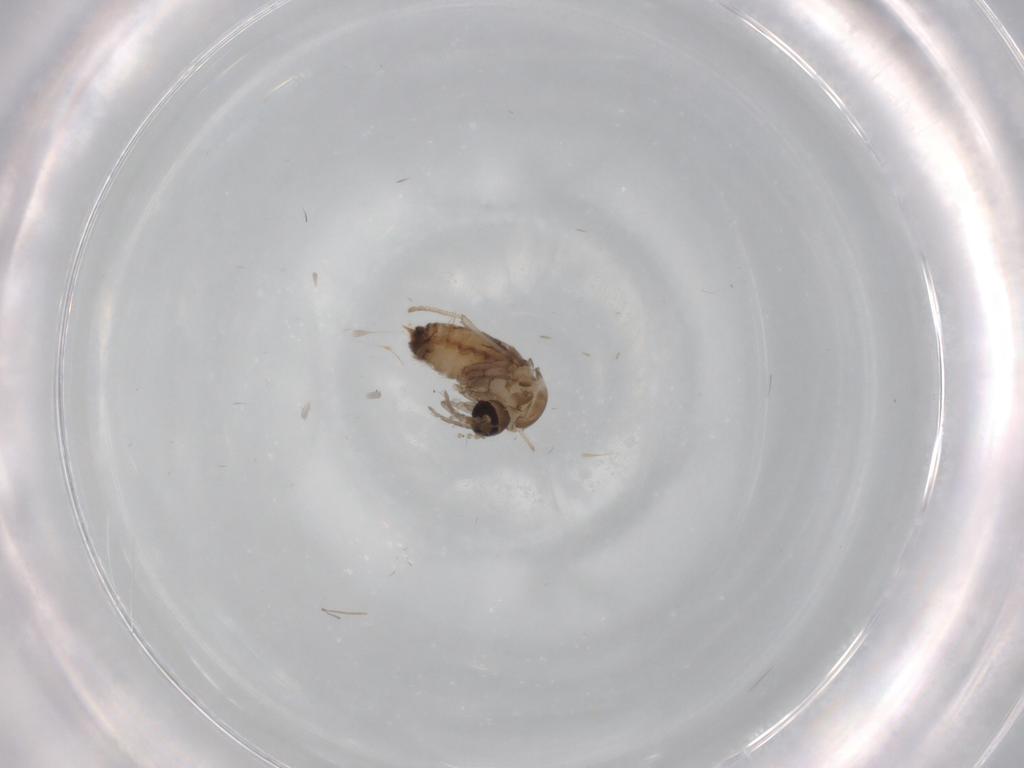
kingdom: Animalia
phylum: Arthropoda
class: Insecta
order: Diptera
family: Psychodidae
